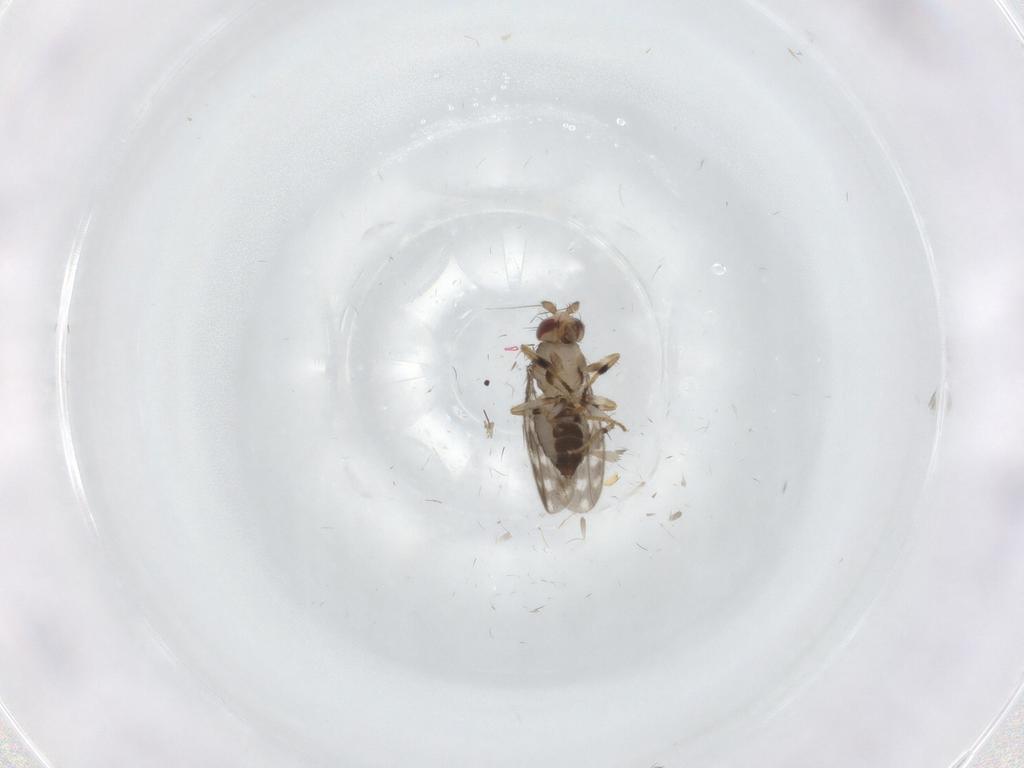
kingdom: Animalia
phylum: Arthropoda
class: Insecta
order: Diptera
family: Sphaeroceridae
